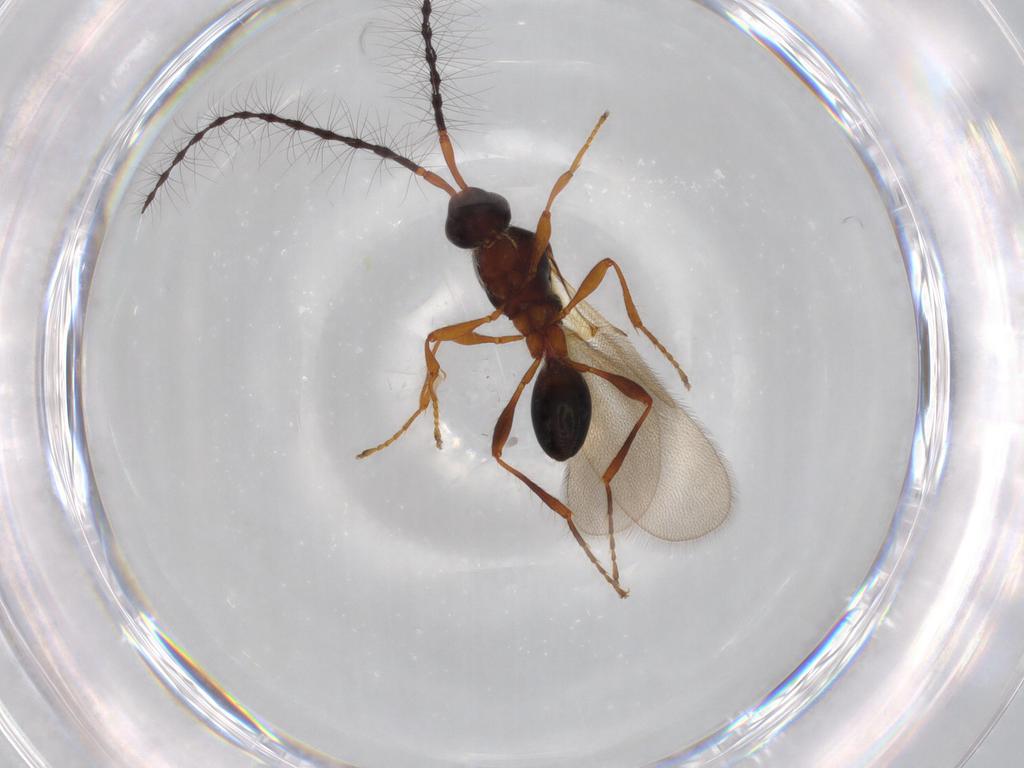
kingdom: Animalia
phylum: Arthropoda
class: Insecta
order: Hymenoptera
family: Diapriidae
